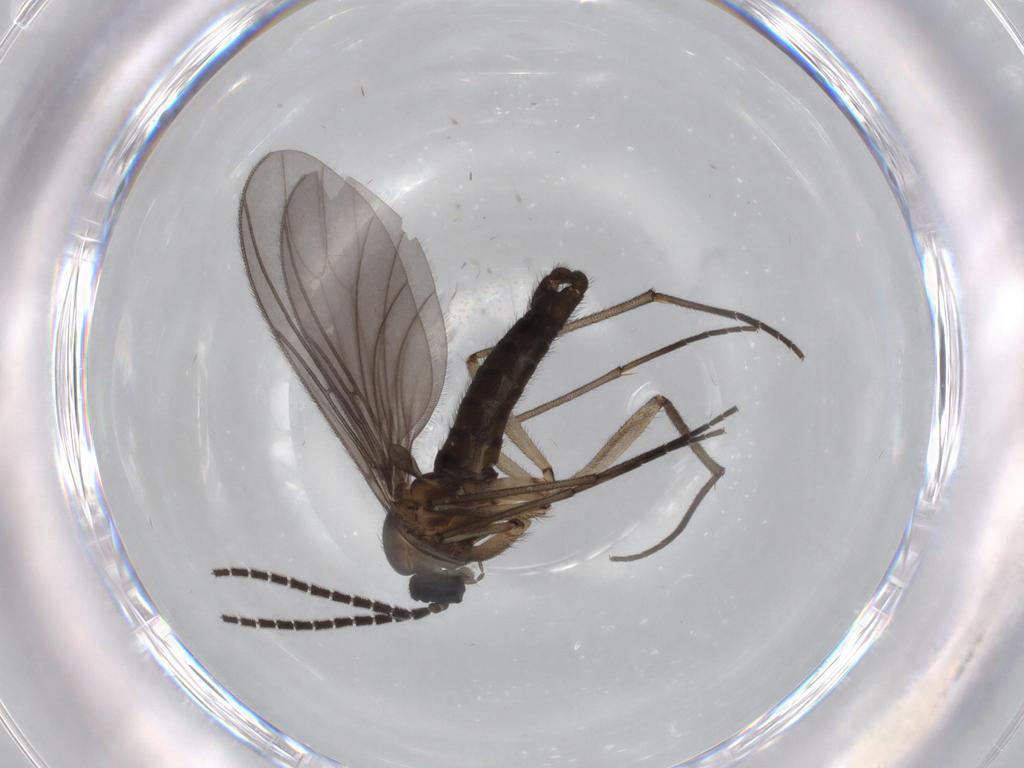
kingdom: Animalia
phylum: Arthropoda
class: Insecta
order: Diptera
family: Sciaridae
